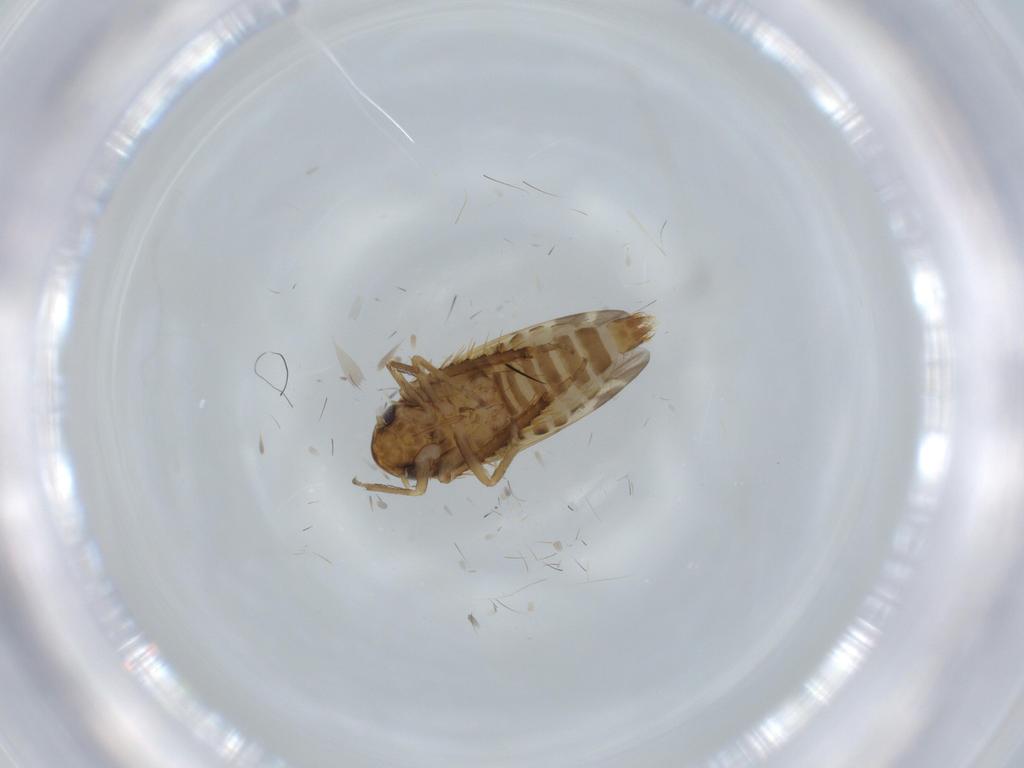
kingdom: Animalia
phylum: Arthropoda
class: Insecta
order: Hemiptera
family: Cicadellidae
